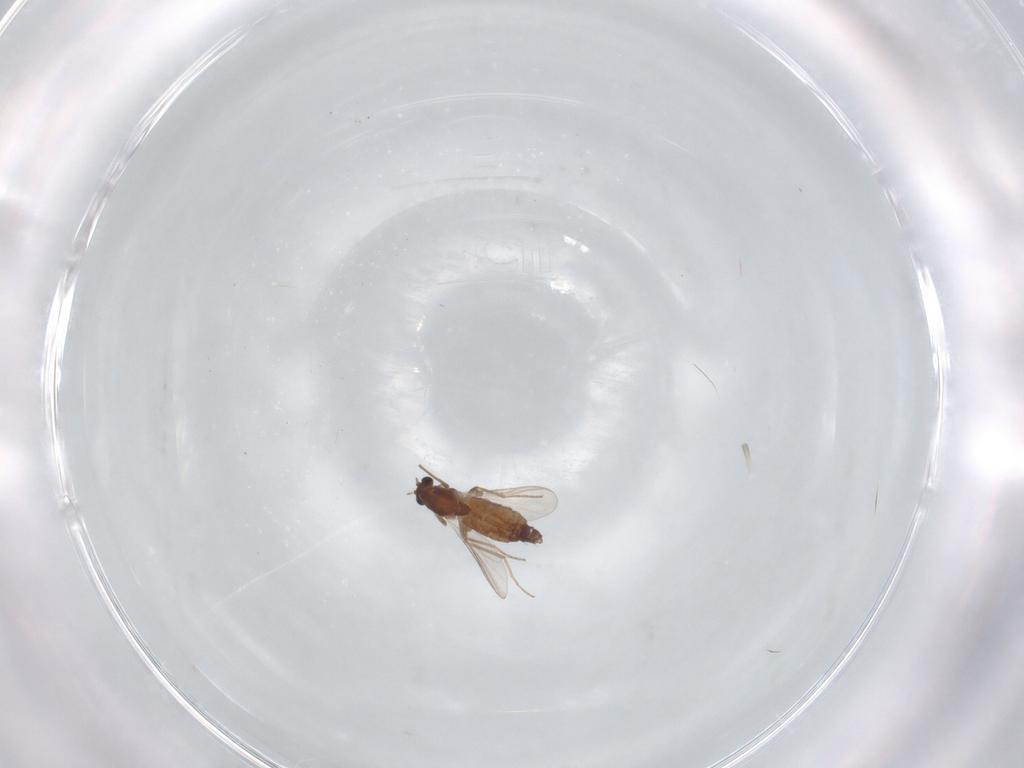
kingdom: Animalia
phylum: Arthropoda
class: Insecta
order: Diptera
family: Chironomidae
